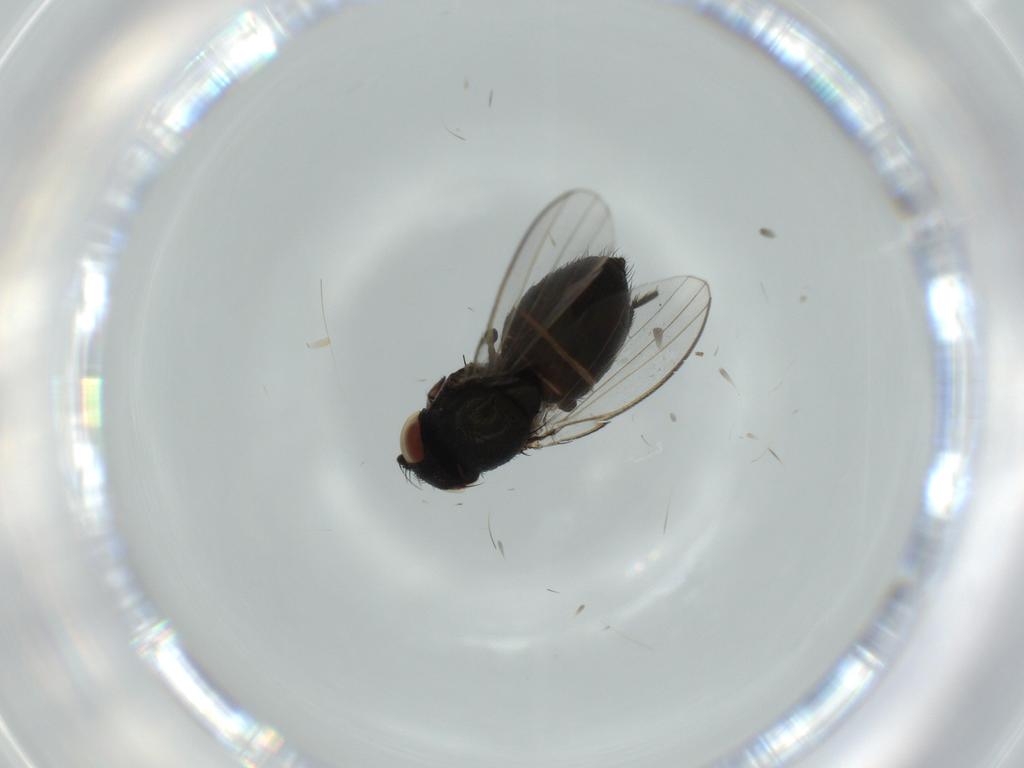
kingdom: Animalia
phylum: Arthropoda
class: Insecta
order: Diptera
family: Milichiidae
